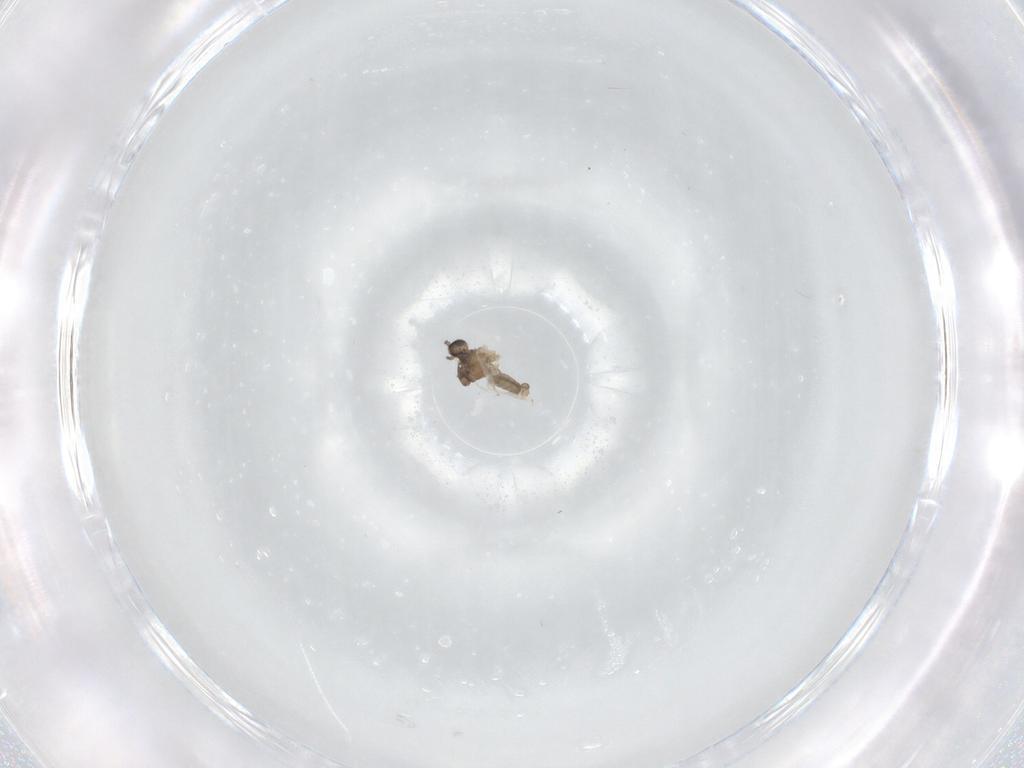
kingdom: Animalia
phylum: Arthropoda
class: Insecta
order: Diptera
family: Cecidomyiidae
